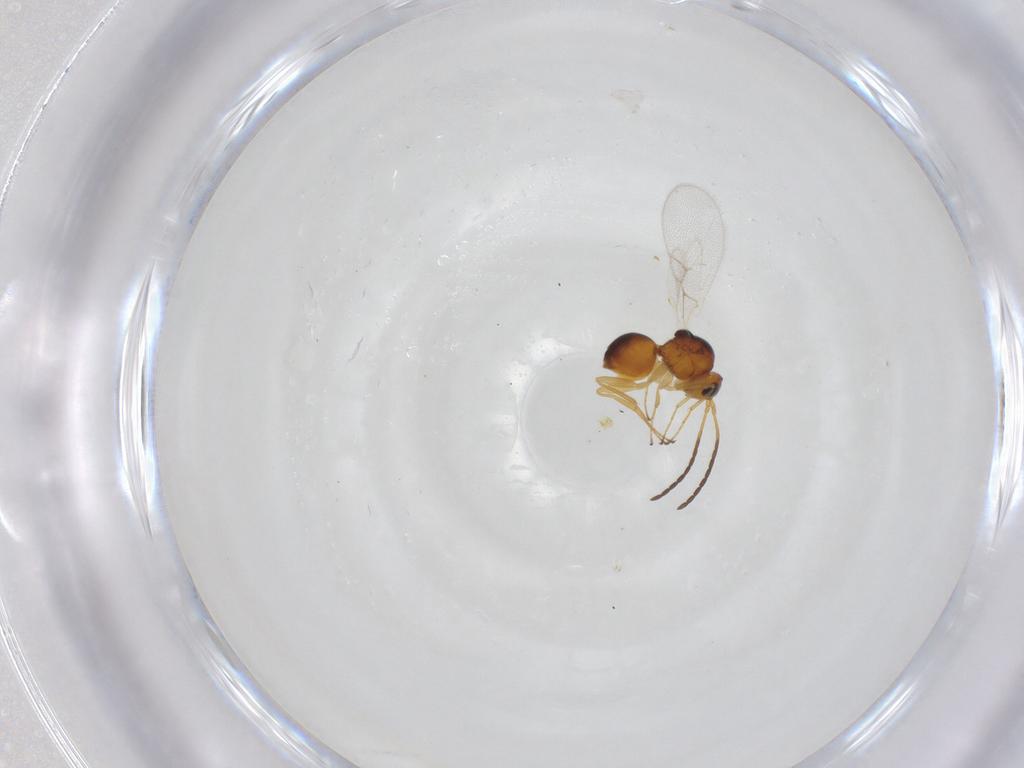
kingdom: Animalia
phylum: Arthropoda
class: Insecta
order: Hymenoptera
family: Figitidae
